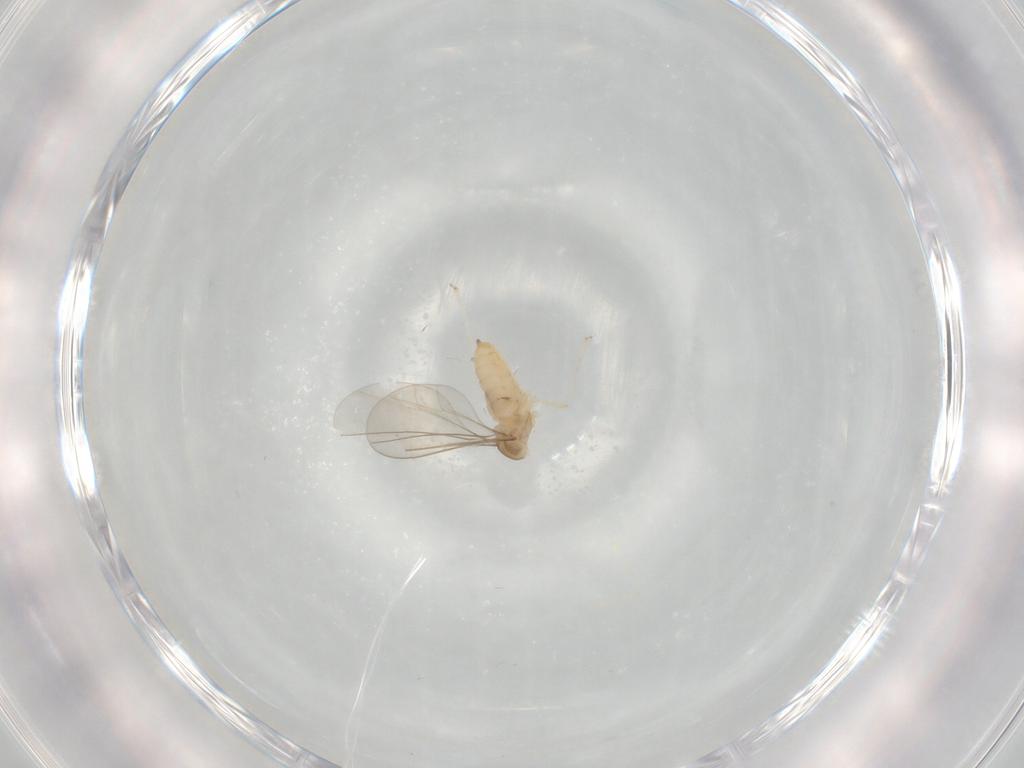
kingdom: Animalia
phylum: Arthropoda
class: Insecta
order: Diptera
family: Cecidomyiidae
